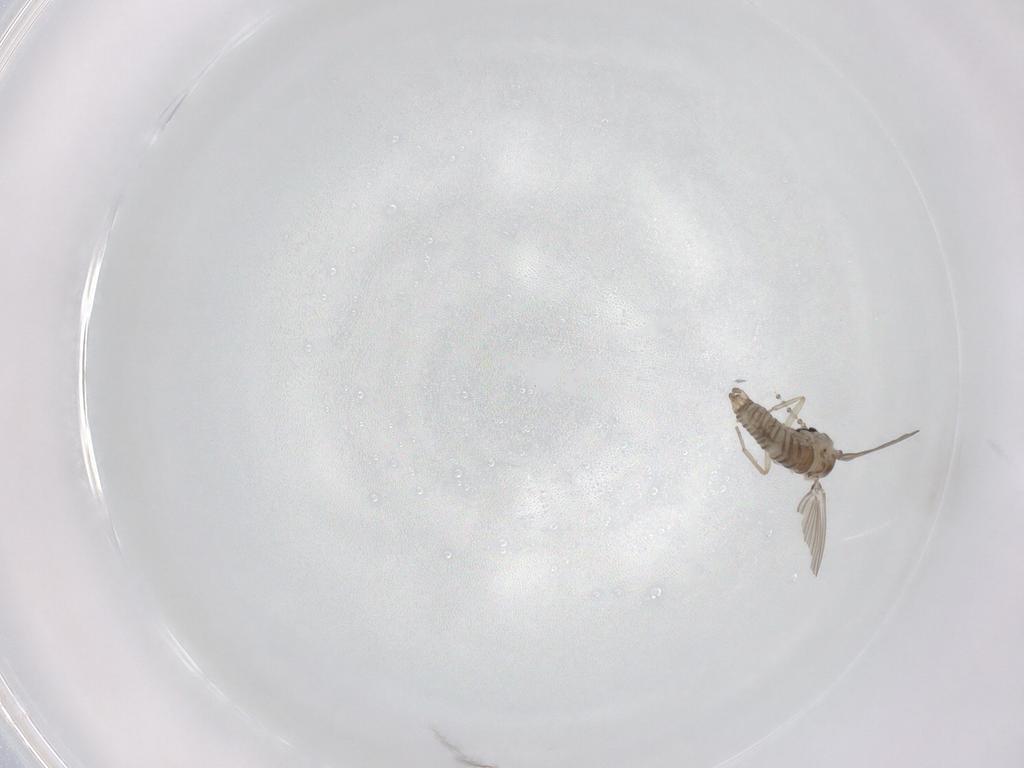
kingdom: Animalia
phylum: Arthropoda
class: Insecta
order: Diptera
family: Psychodidae
